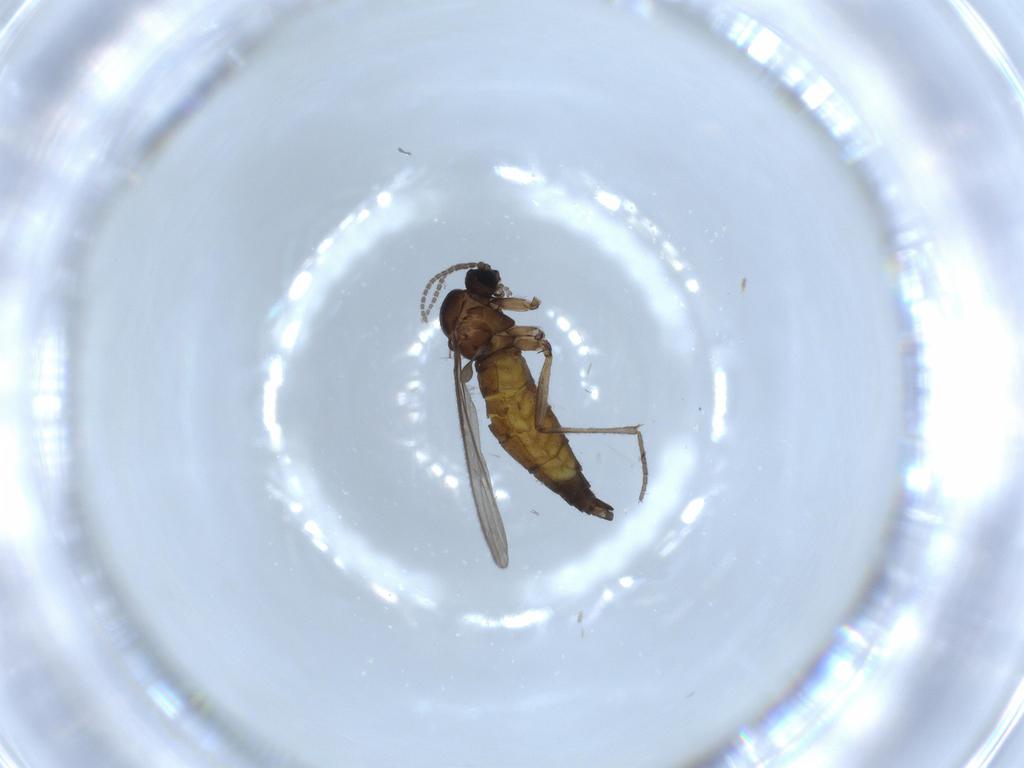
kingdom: Animalia
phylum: Arthropoda
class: Insecta
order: Diptera
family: Sciaridae
